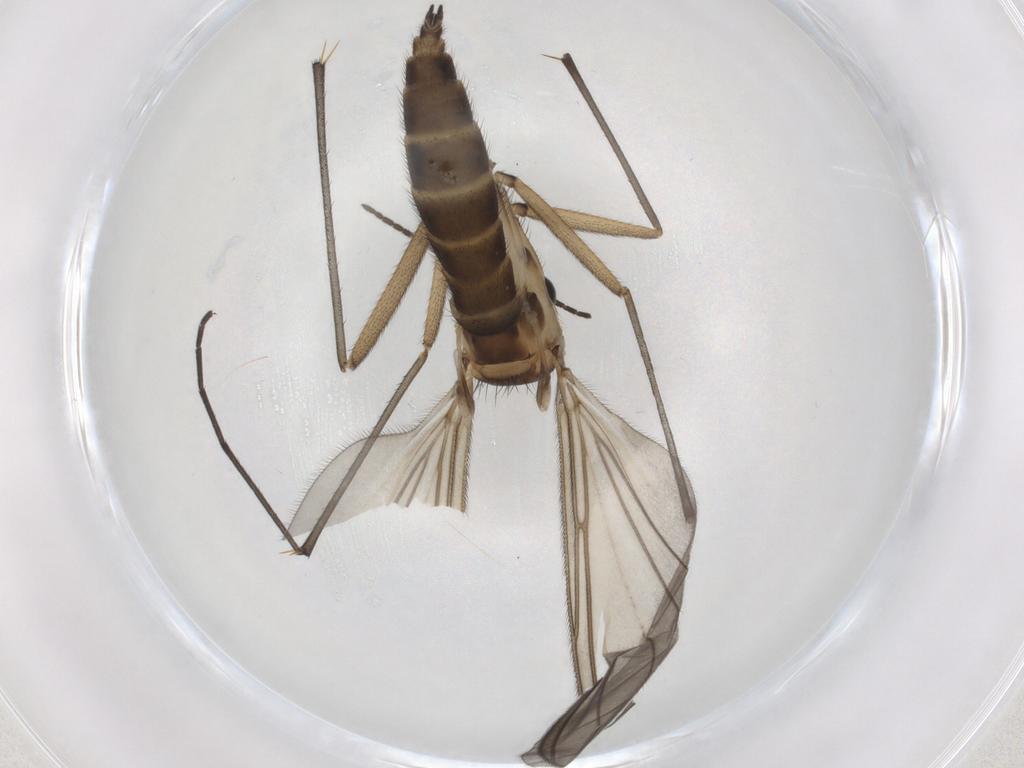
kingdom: Animalia
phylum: Arthropoda
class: Insecta
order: Diptera
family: Sciaridae
